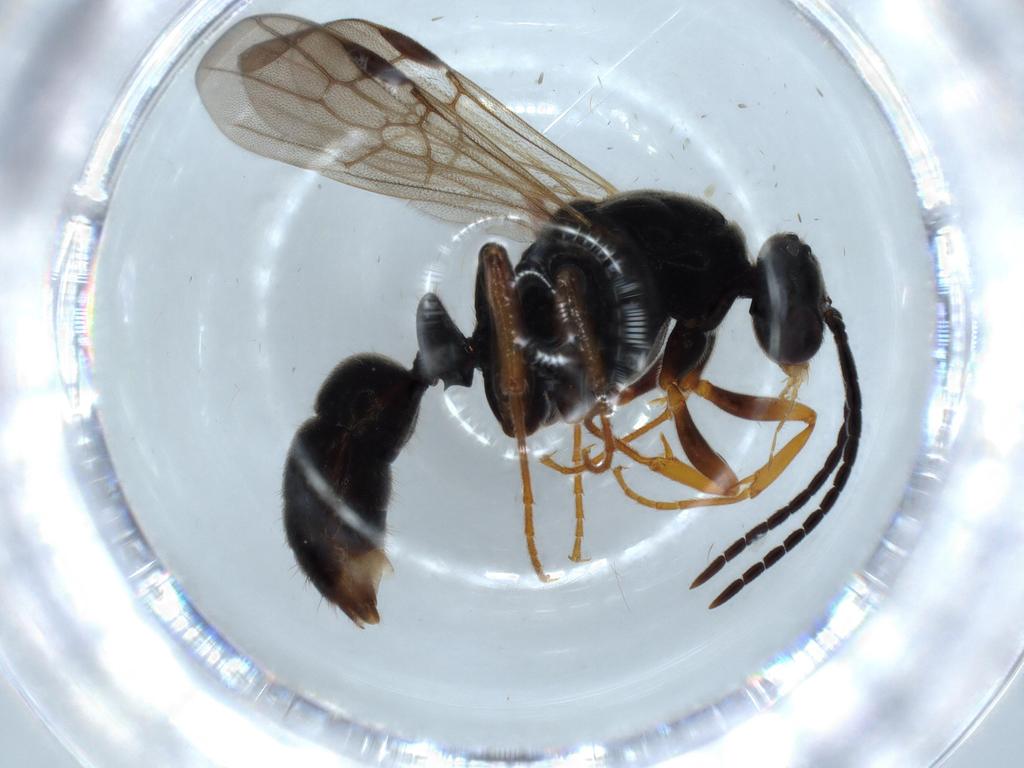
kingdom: Animalia
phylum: Arthropoda
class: Insecta
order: Hymenoptera
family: Formicidae
